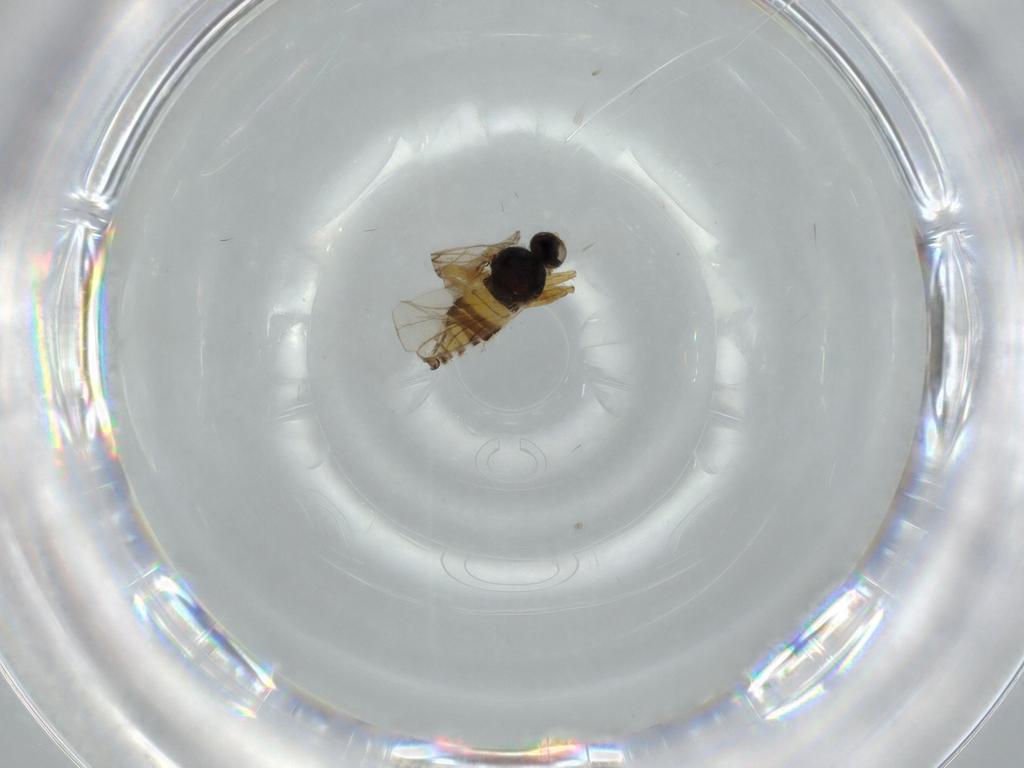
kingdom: Animalia
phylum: Arthropoda
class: Insecta
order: Diptera
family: Hybotidae
